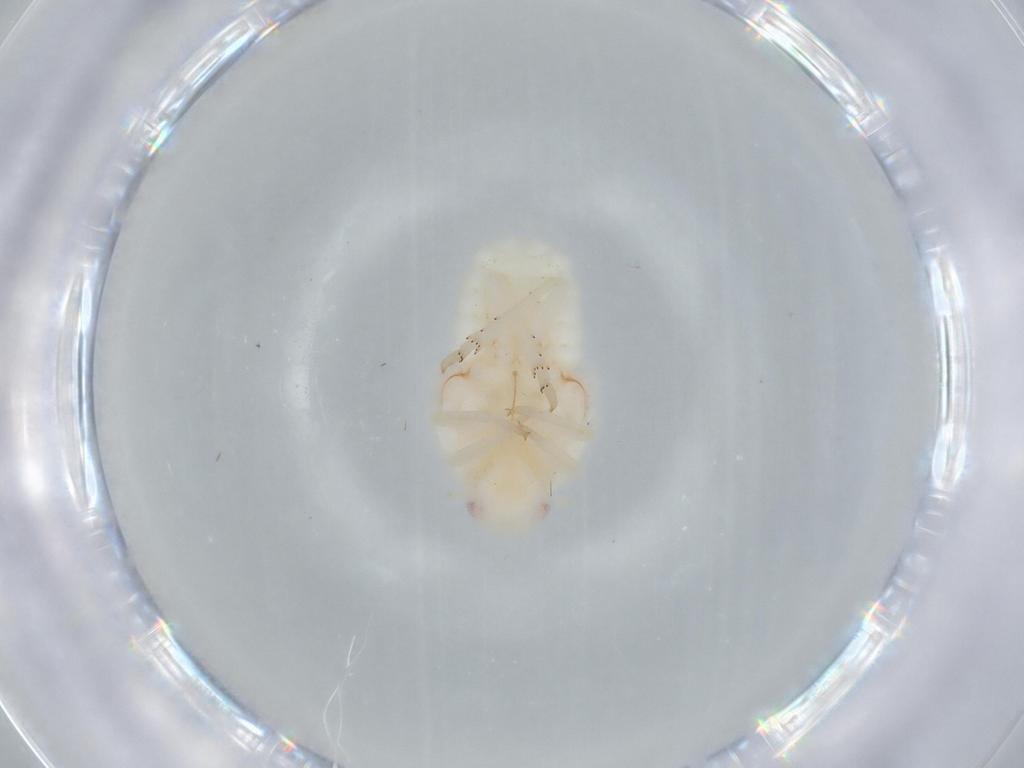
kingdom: Animalia
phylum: Arthropoda
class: Insecta
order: Hemiptera
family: Flatidae
